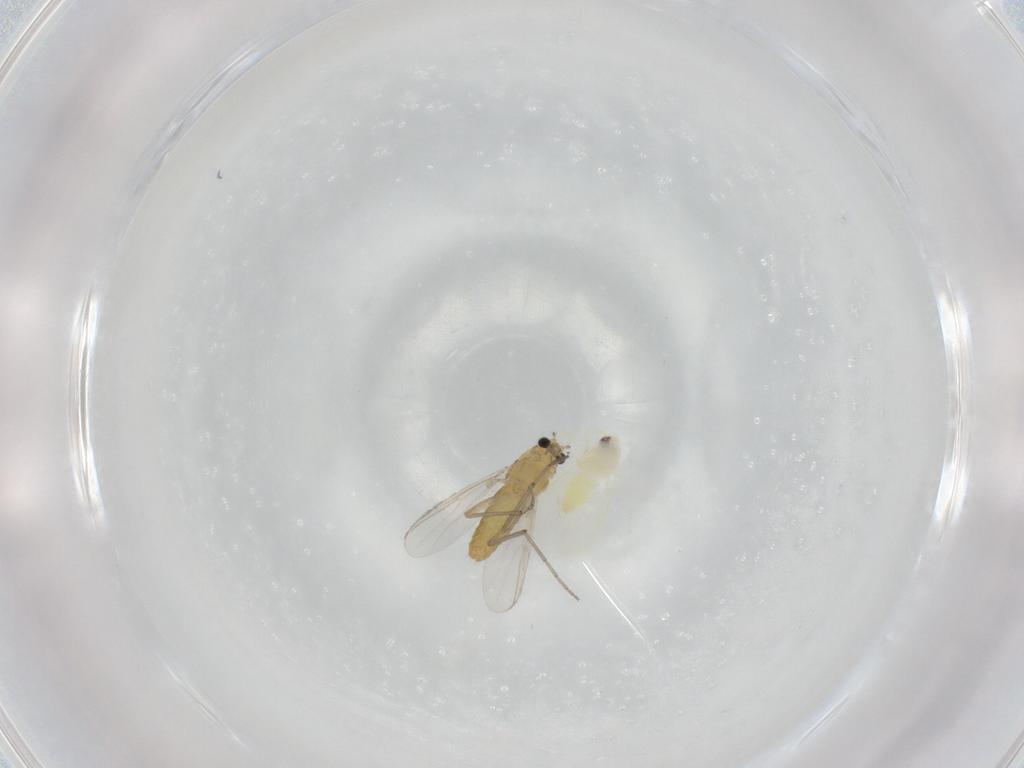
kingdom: Animalia
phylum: Arthropoda
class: Insecta
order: Diptera
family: Chironomidae
